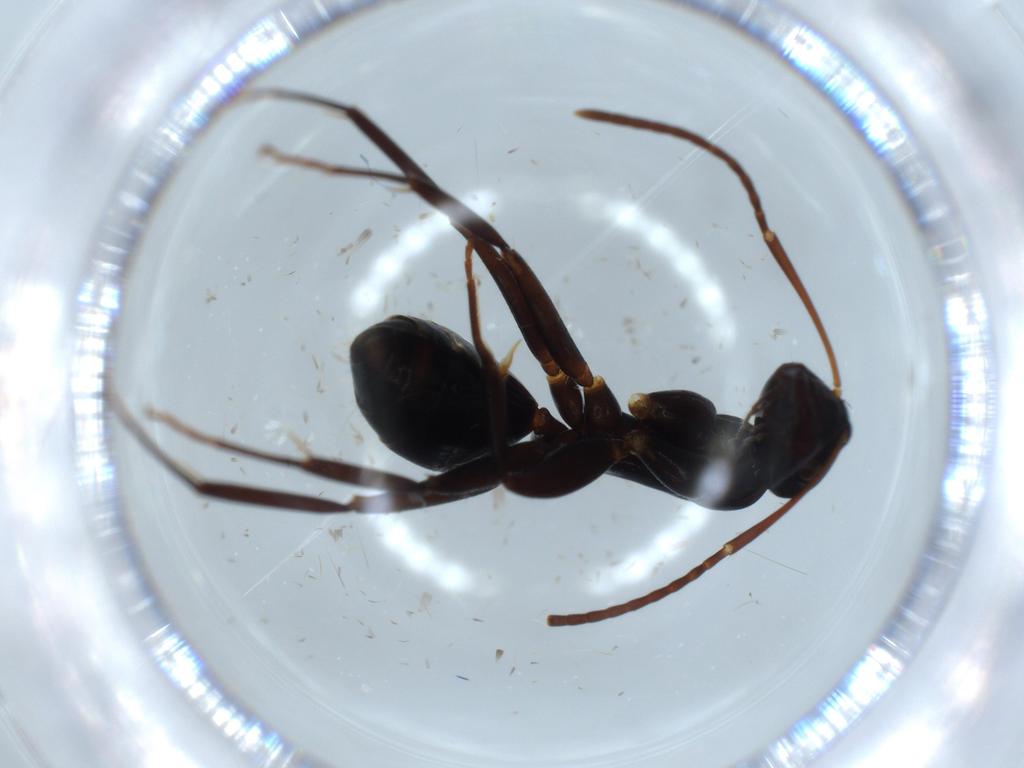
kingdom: Animalia
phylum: Arthropoda
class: Insecta
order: Hymenoptera
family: Formicidae
